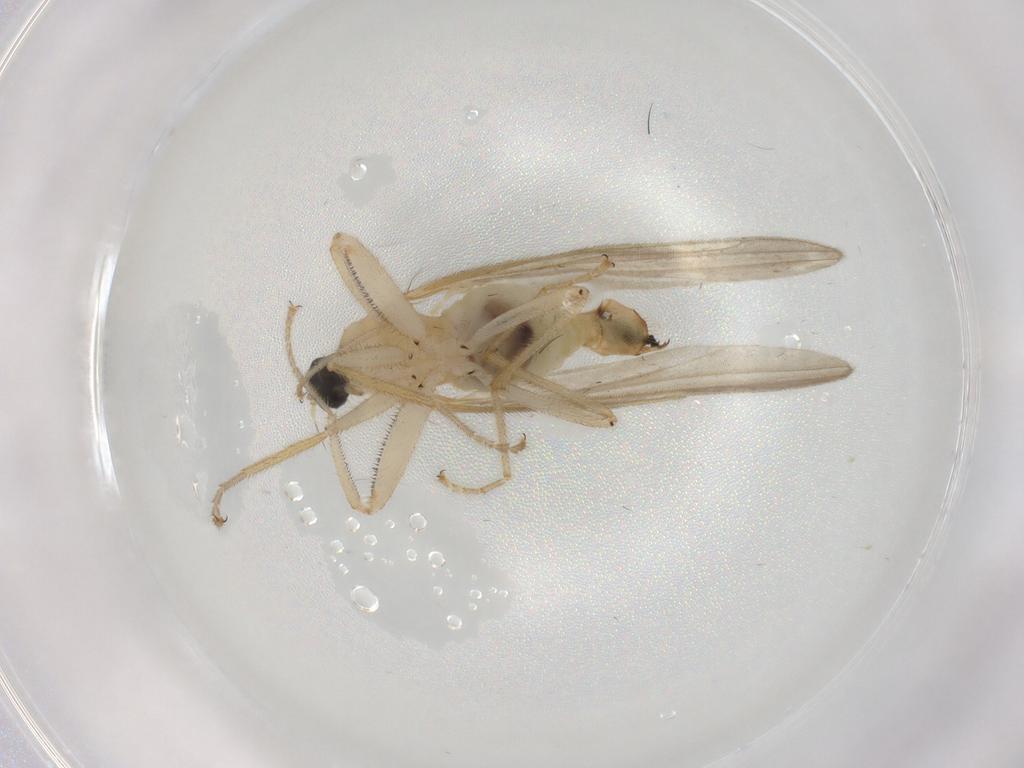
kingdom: Animalia
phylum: Arthropoda
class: Insecta
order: Diptera
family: Hybotidae
